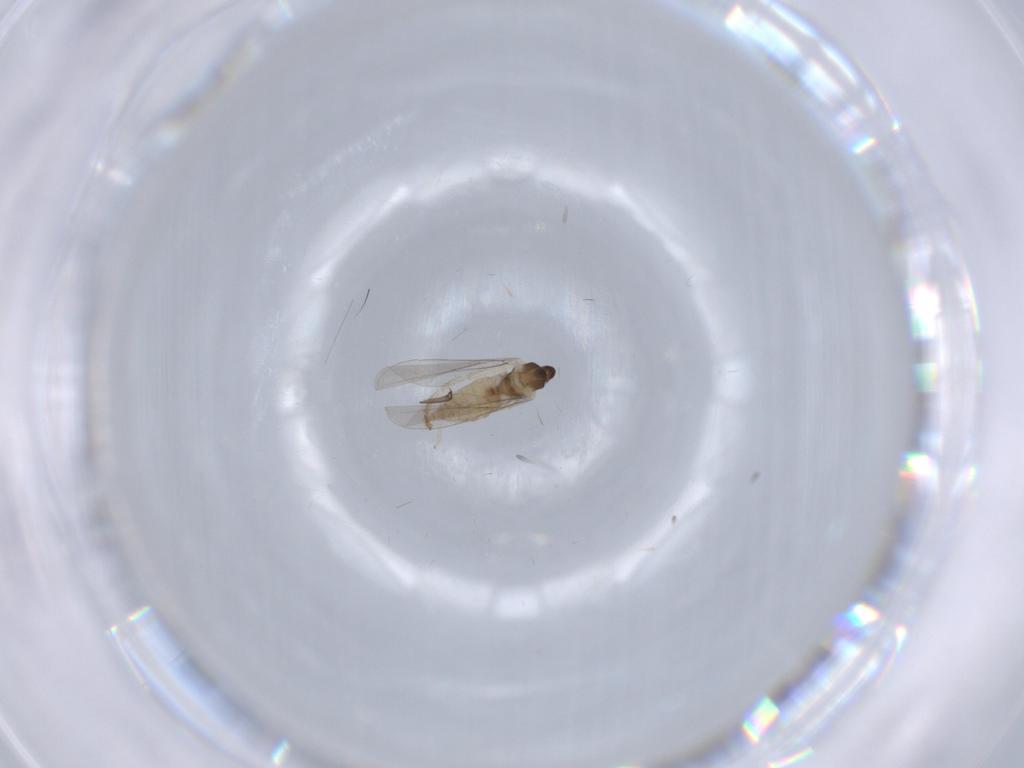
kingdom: Animalia
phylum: Arthropoda
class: Insecta
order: Diptera
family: Cecidomyiidae
